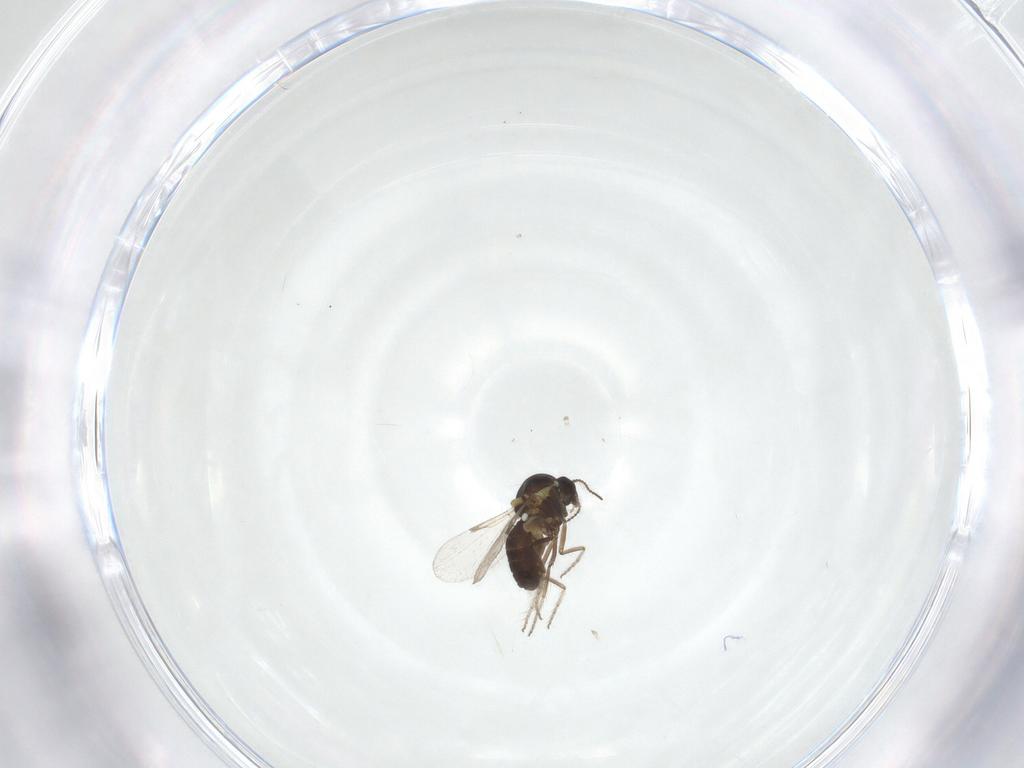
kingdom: Animalia
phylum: Arthropoda
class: Insecta
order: Diptera
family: Ceratopogonidae
